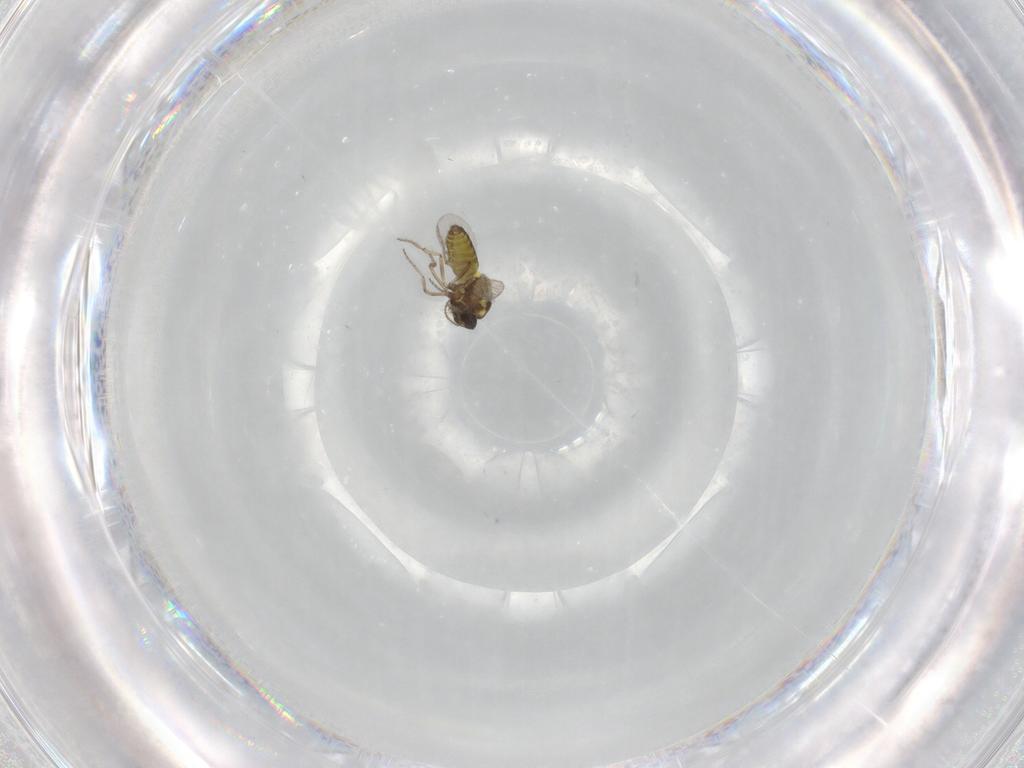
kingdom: Animalia
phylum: Arthropoda
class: Insecta
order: Diptera
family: Ceratopogonidae
